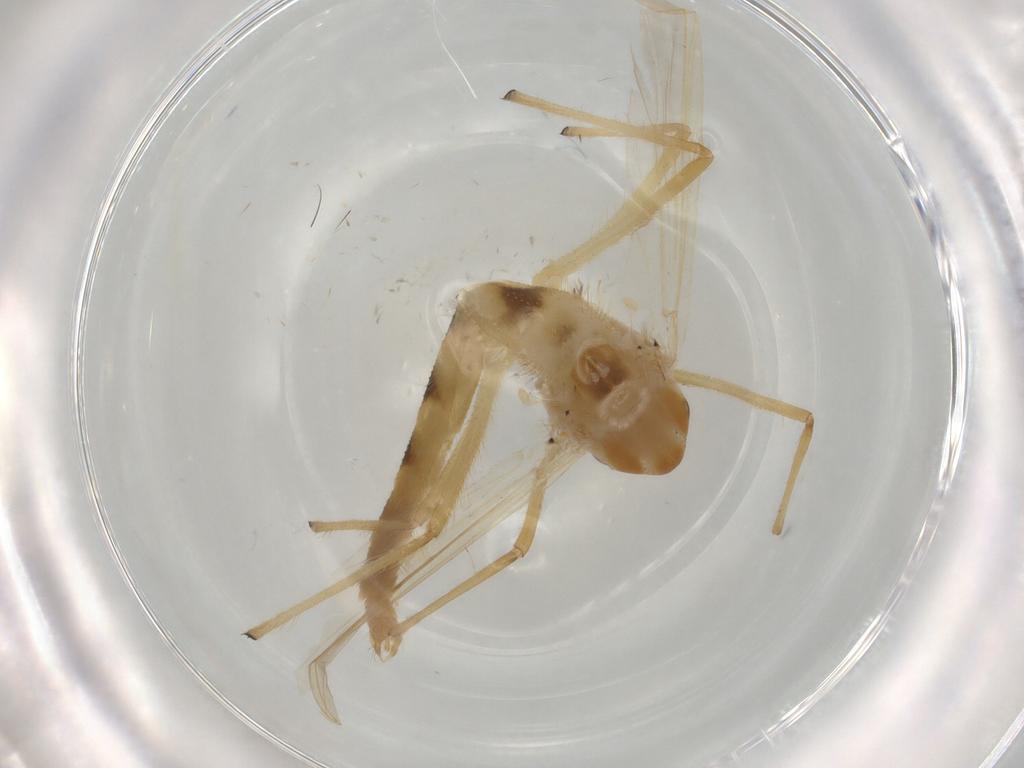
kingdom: Animalia
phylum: Arthropoda
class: Insecta
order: Diptera
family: Chironomidae
